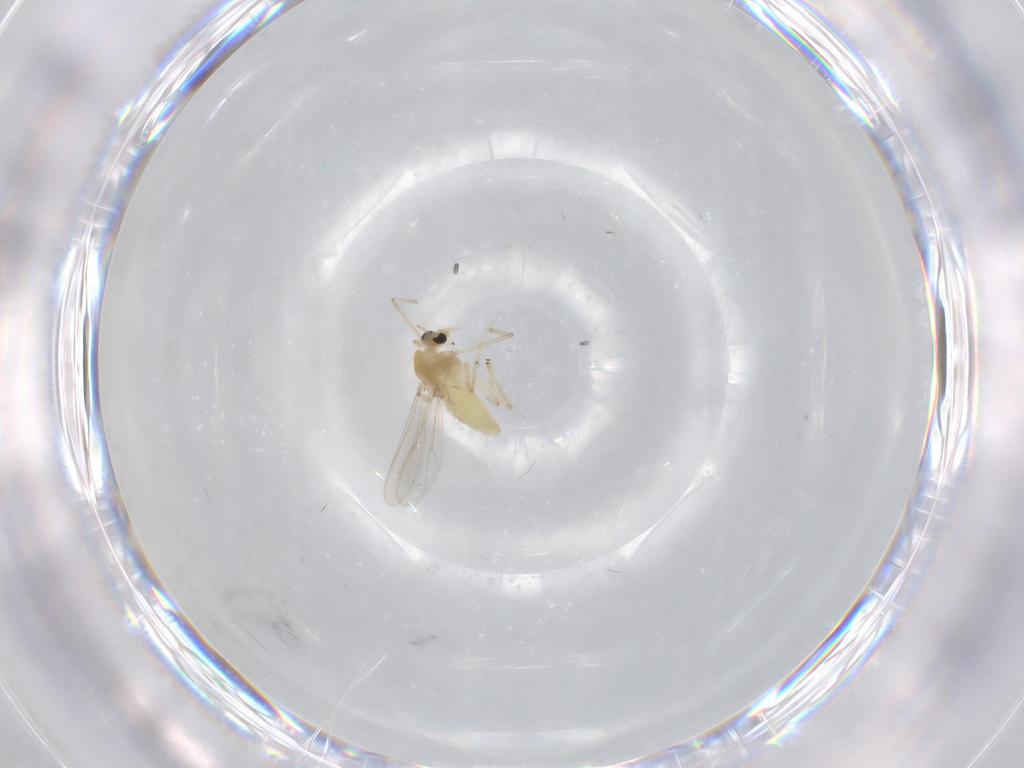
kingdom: Animalia
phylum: Arthropoda
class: Insecta
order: Diptera
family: Chironomidae
